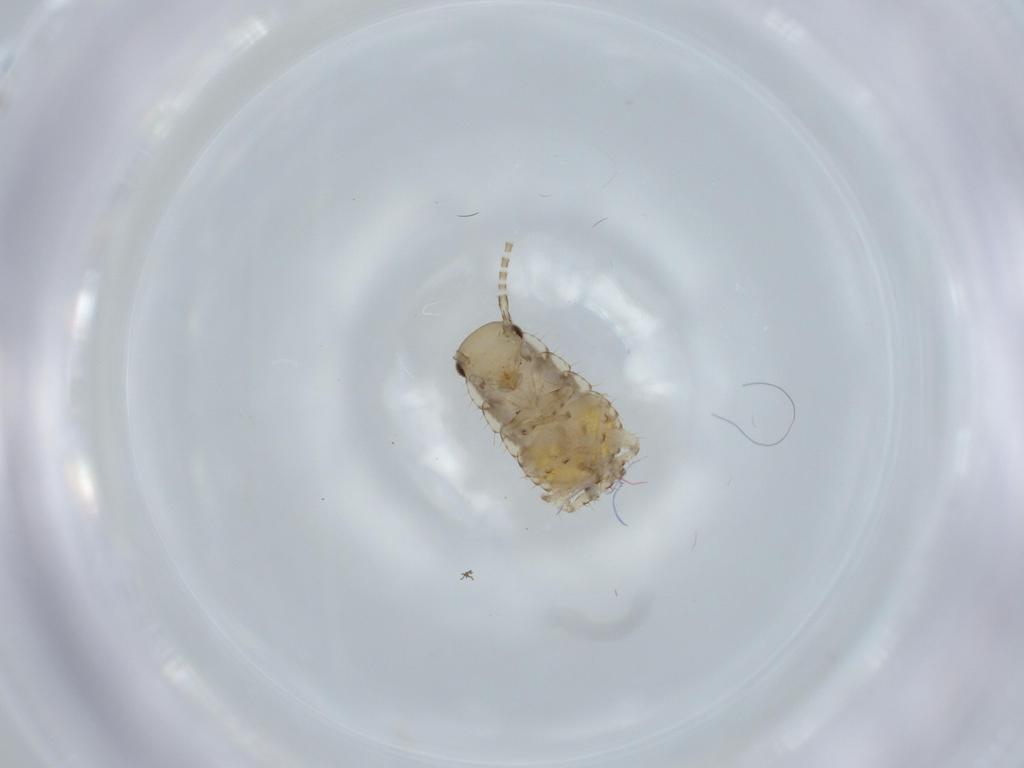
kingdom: Animalia
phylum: Arthropoda
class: Insecta
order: Blattodea
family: Ectobiidae
